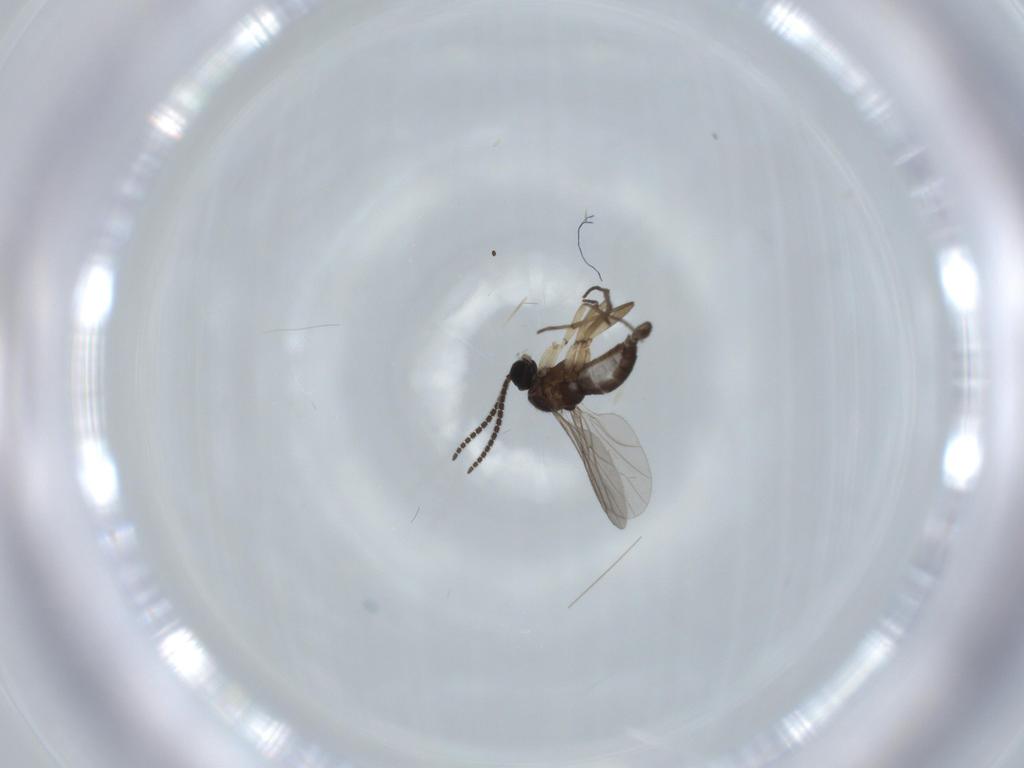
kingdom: Animalia
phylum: Arthropoda
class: Insecta
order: Diptera
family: Sciaridae
